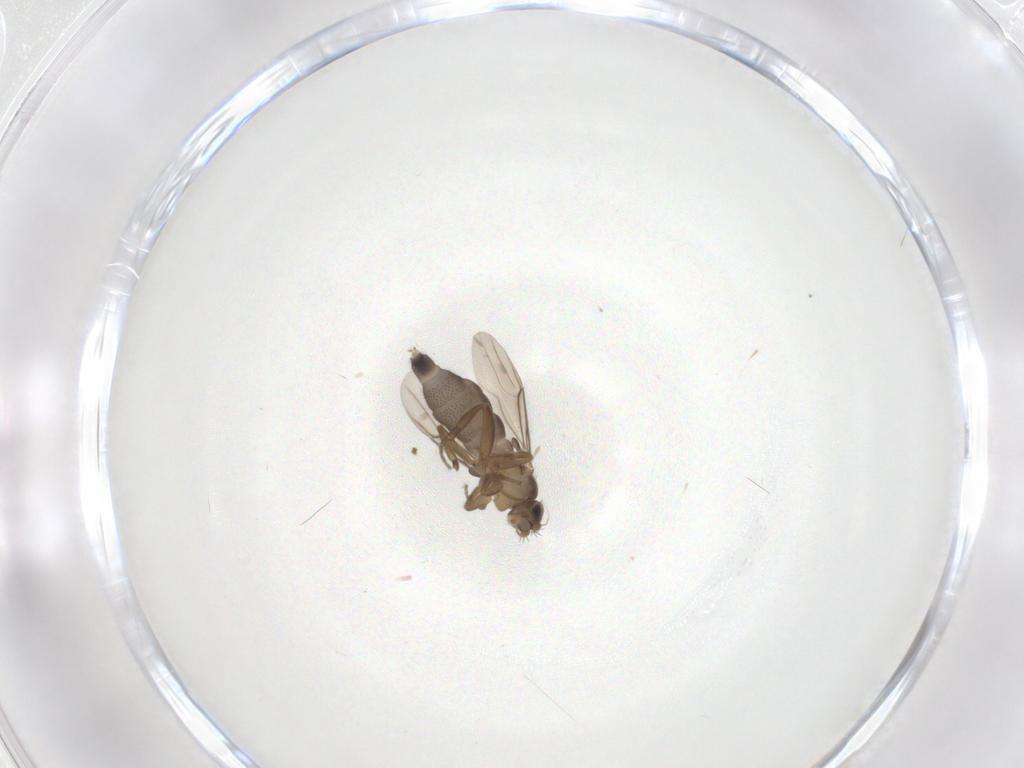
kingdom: Animalia
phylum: Arthropoda
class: Insecta
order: Diptera
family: Phoridae
